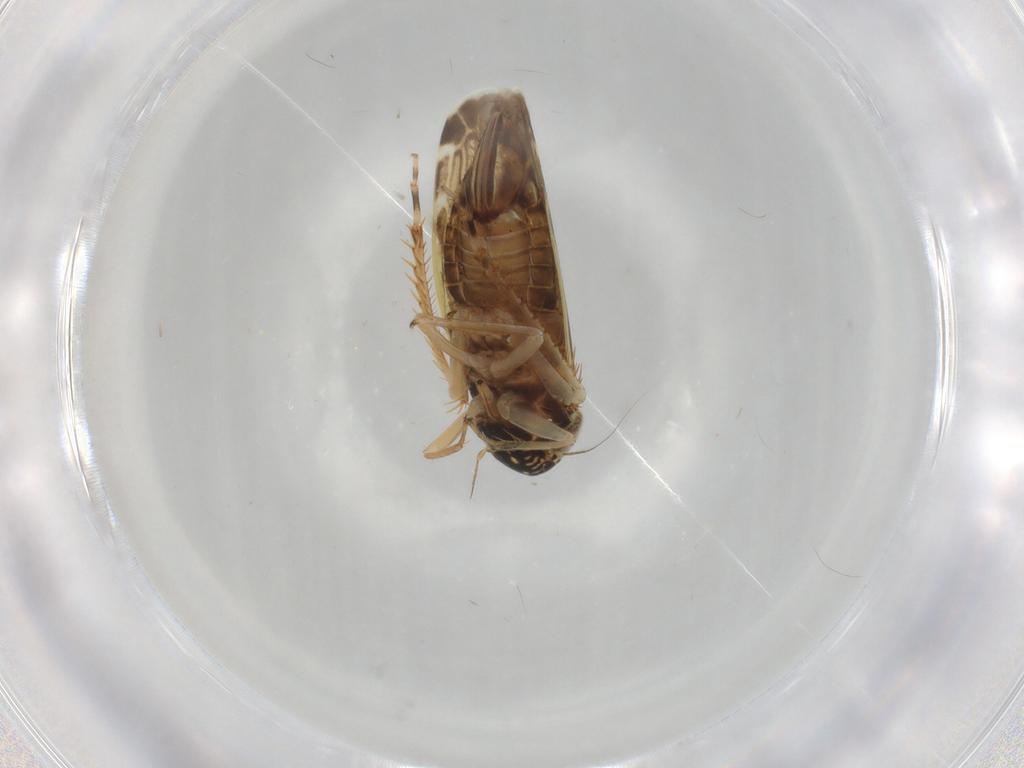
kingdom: Animalia
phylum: Arthropoda
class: Insecta
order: Hemiptera
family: Cicadellidae
